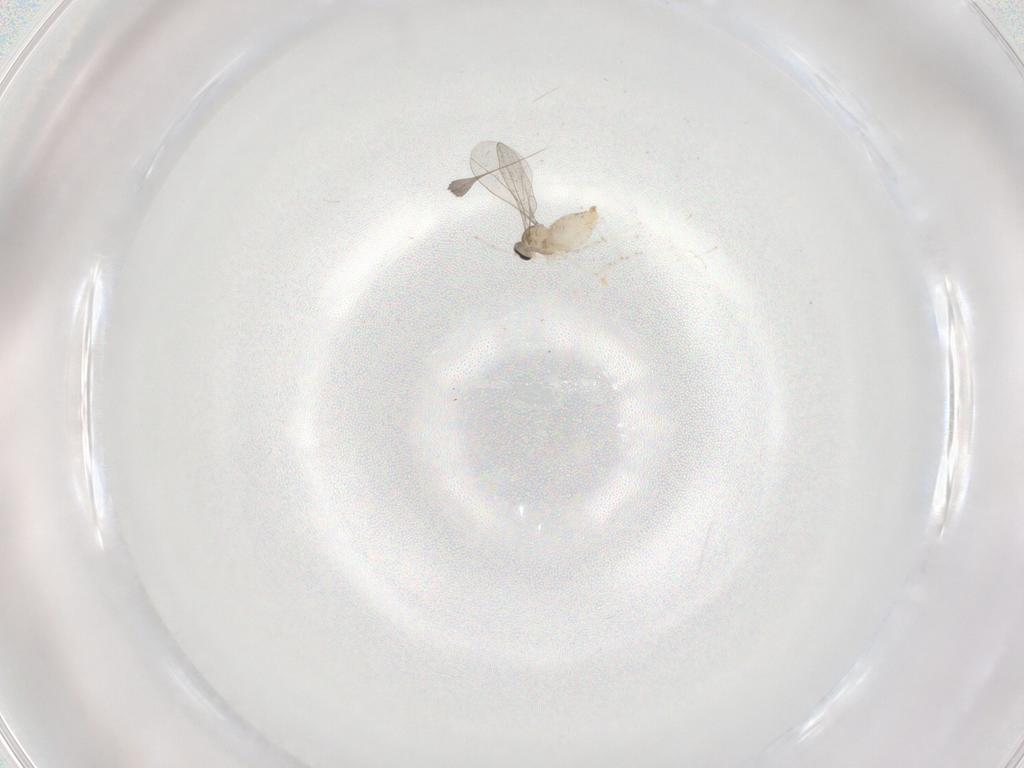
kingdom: Animalia
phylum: Arthropoda
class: Insecta
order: Diptera
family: Cecidomyiidae
